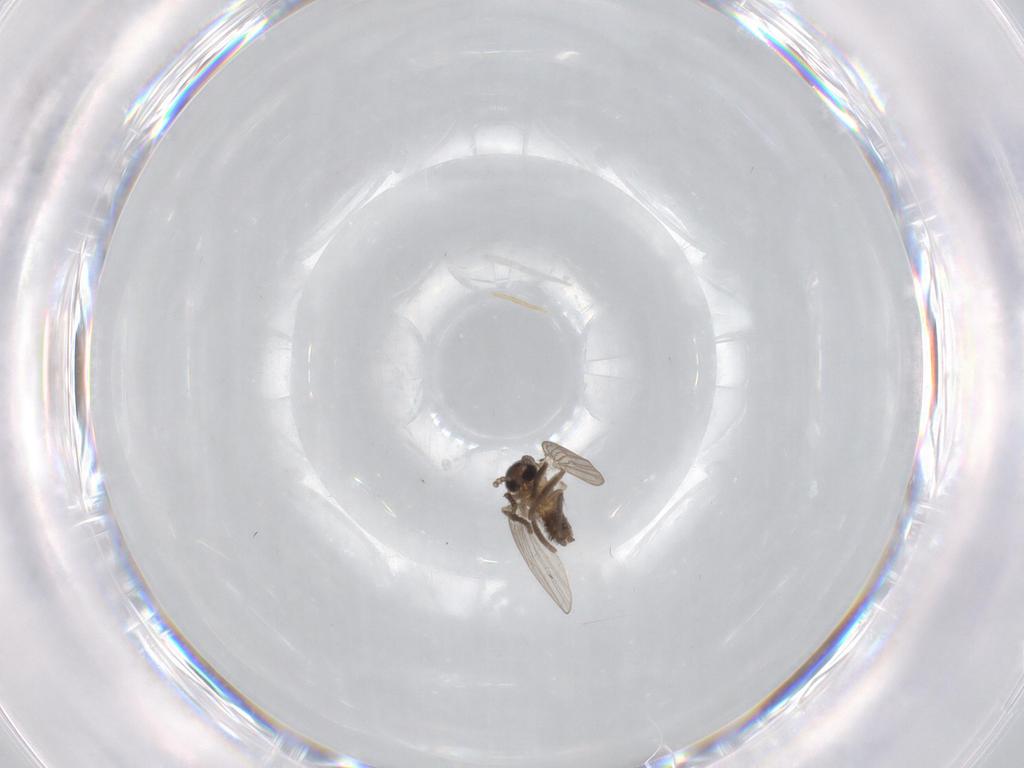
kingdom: Animalia
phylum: Arthropoda
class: Insecta
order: Diptera
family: Psychodidae
